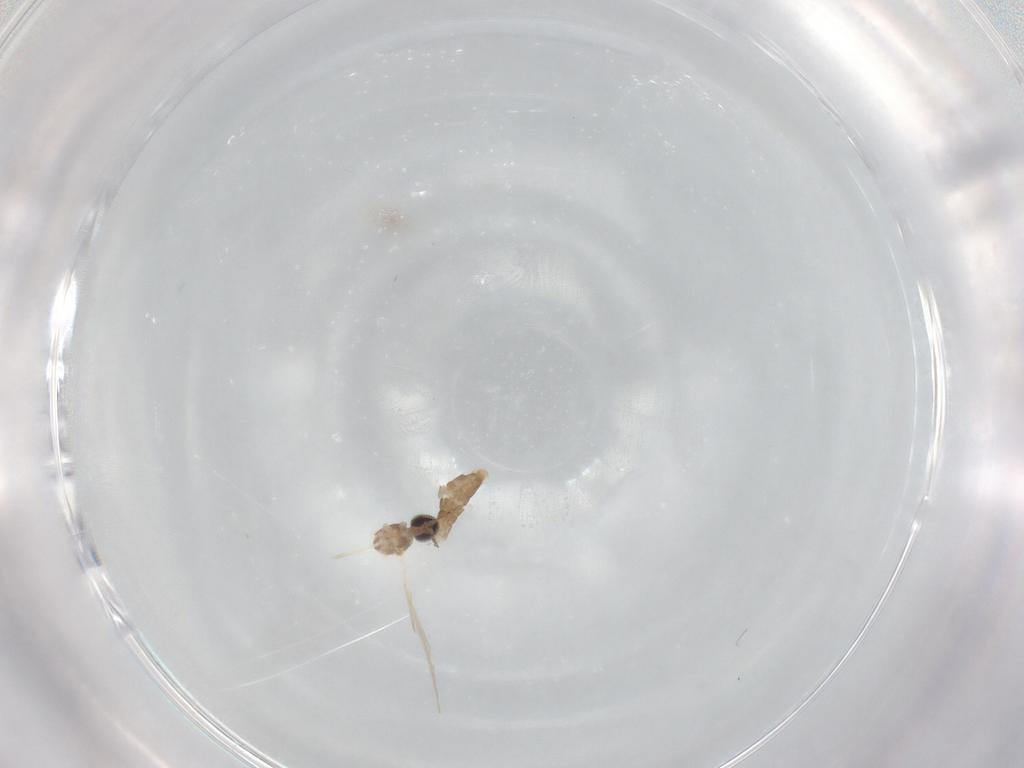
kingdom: Animalia
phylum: Arthropoda
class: Insecta
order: Diptera
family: Cecidomyiidae
